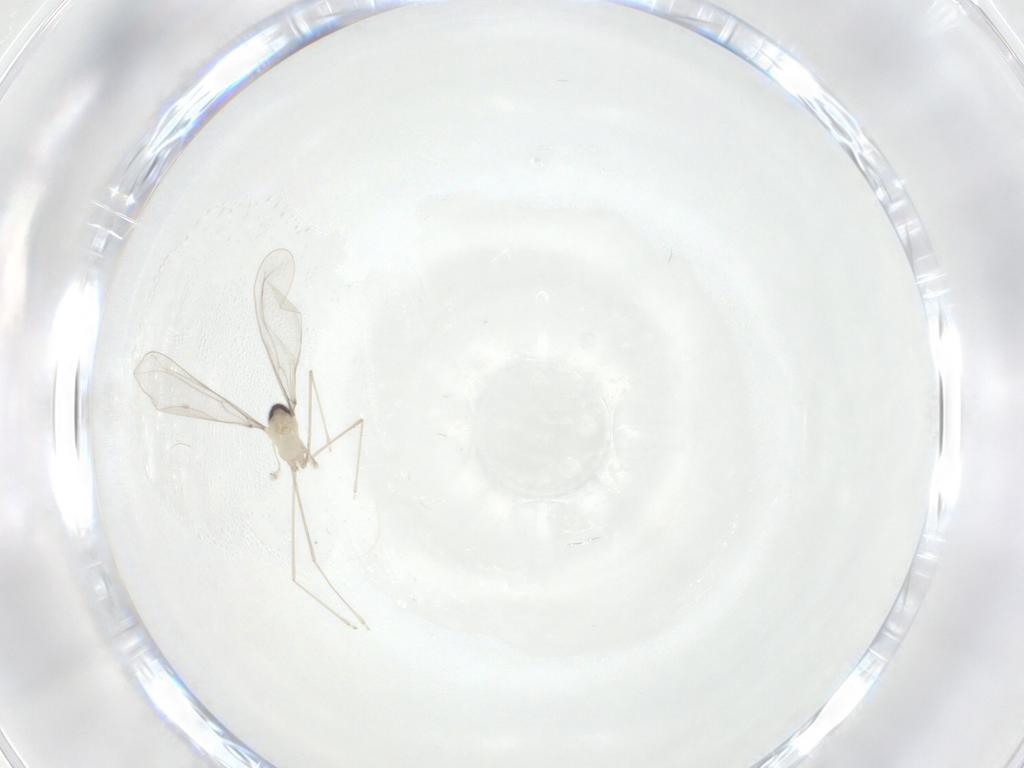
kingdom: Animalia
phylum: Arthropoda
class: Insecta
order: Diptera
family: Cecidomyiidae
